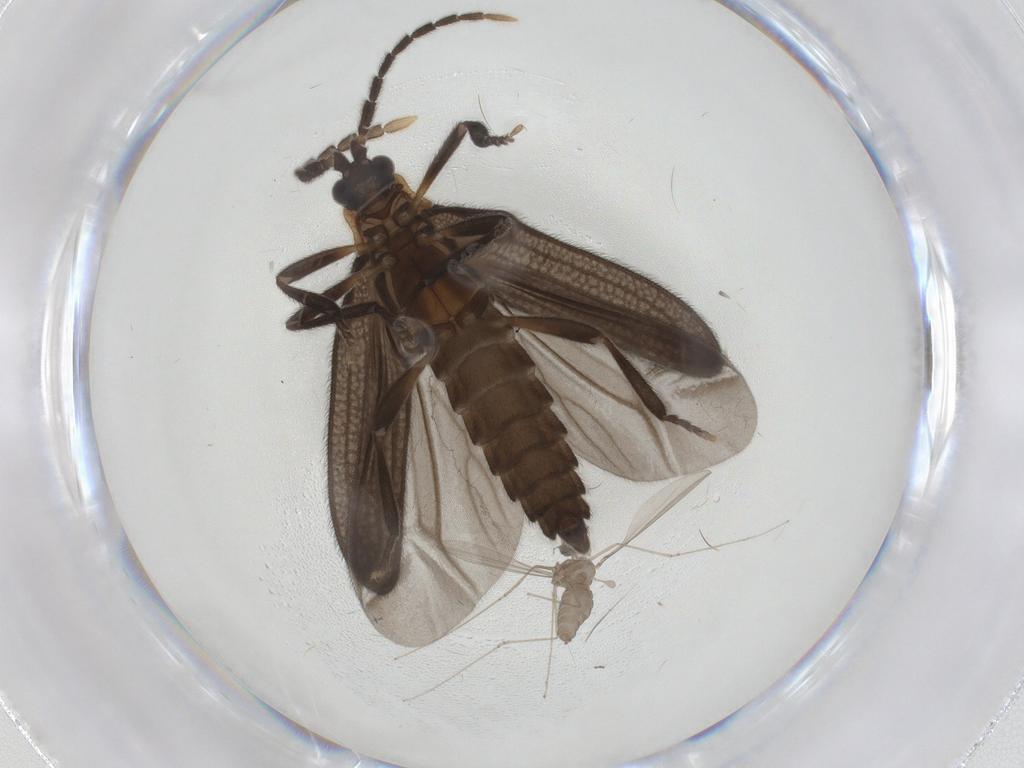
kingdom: Animalia
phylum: Arthropoda
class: Insecta
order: Coleoptera
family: Lycidae
